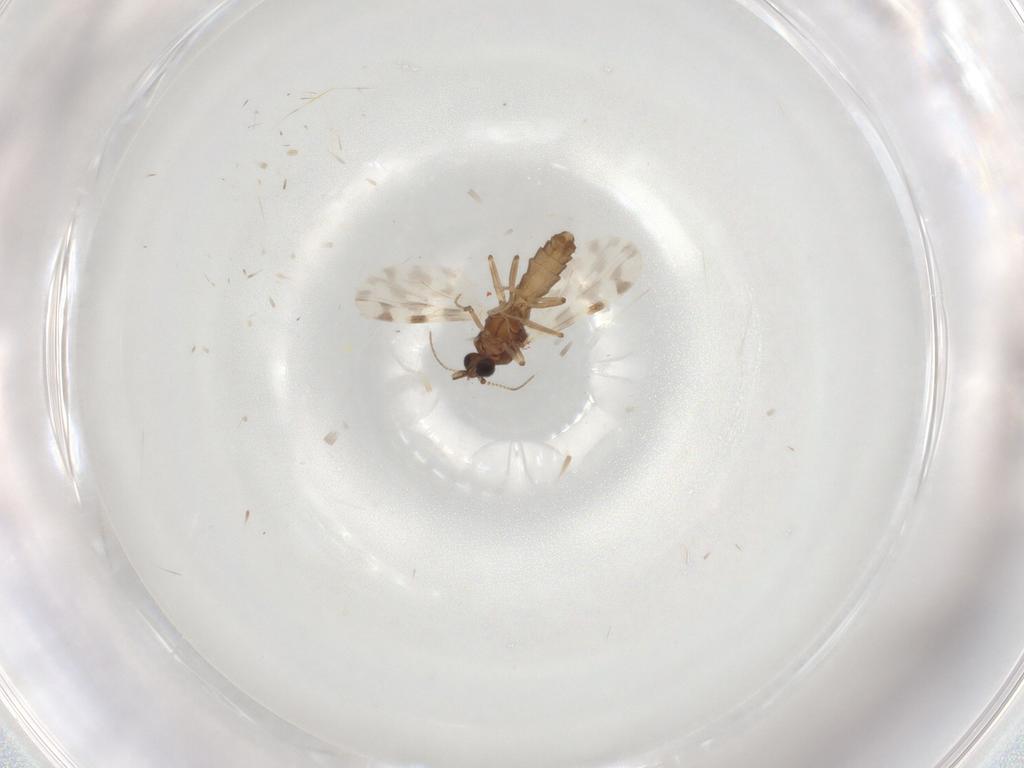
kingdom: Animalia
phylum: Arthropoda
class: Insecta
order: Diptera
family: Ceratopogonidae
